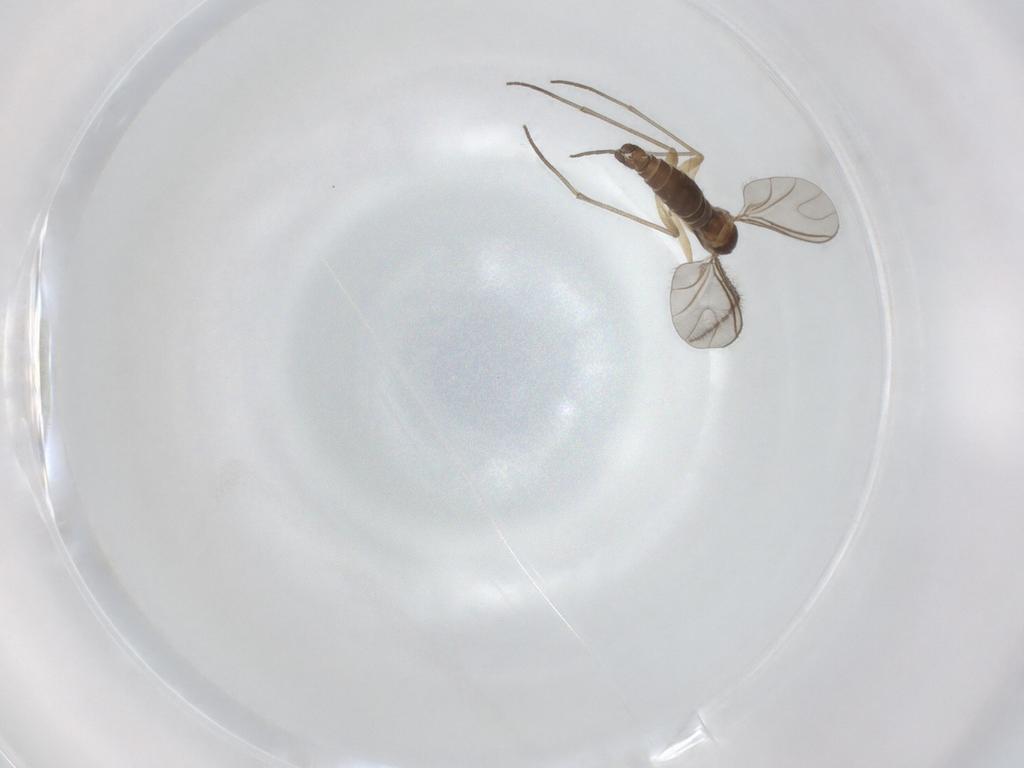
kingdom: Animalia
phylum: Arthropoda
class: Insecta
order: Diptera
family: Sciaridae
